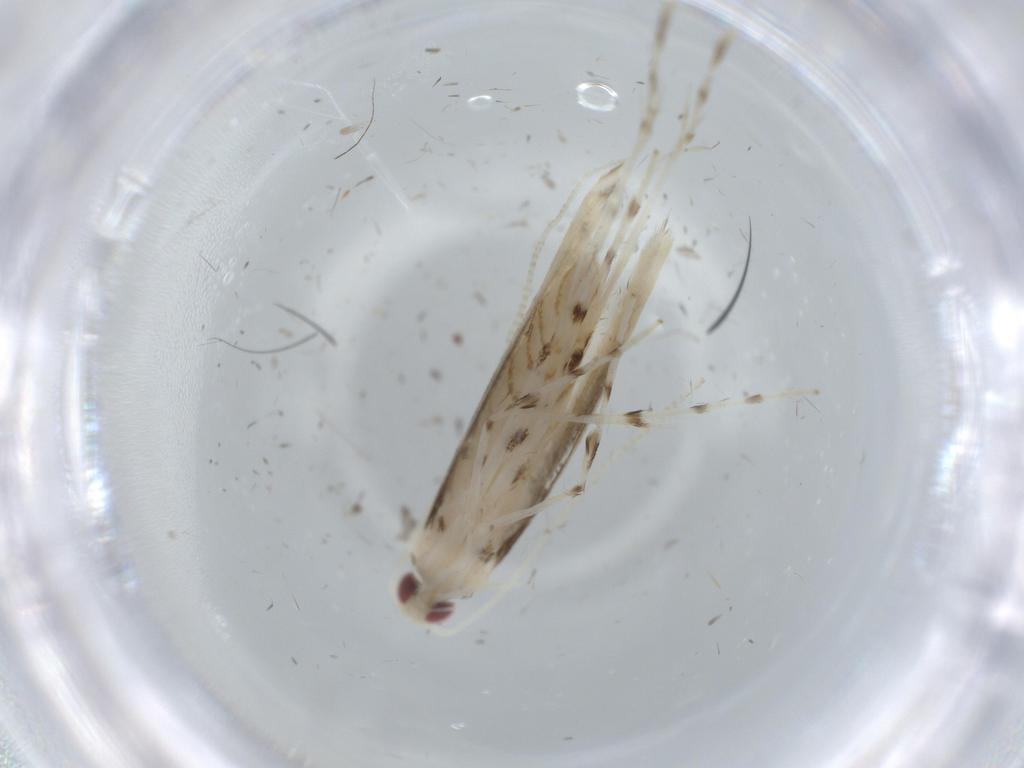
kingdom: Animalia
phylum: Arthropoda
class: Insecta
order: Lepidoptera
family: Gracillariidae
